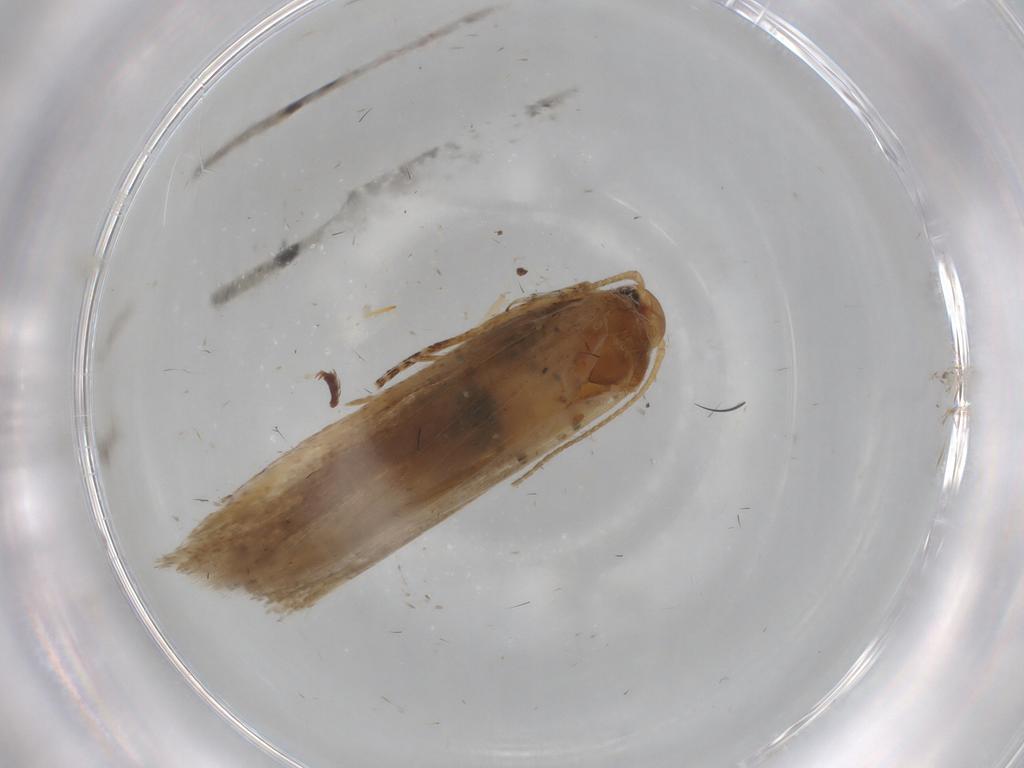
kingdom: Animalia
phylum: Arthropoda
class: Insecta
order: Lepidoptera
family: Gelechiidae
